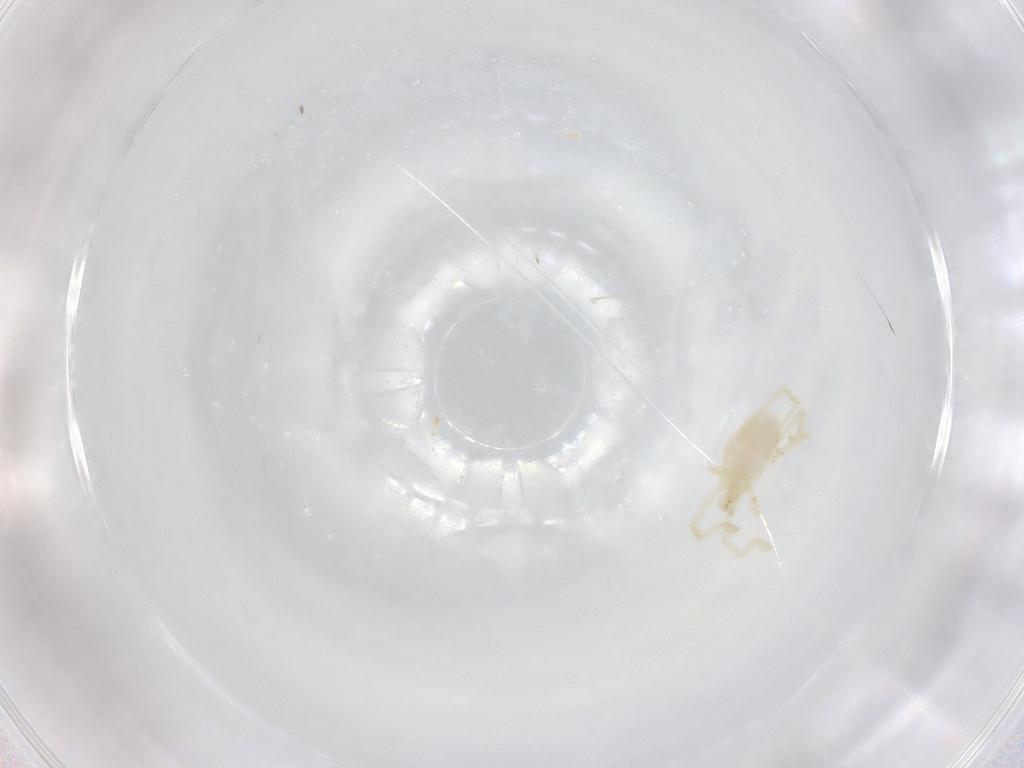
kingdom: Animalia
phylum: Arthropoda
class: Arachnida
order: Trombidiformes
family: Erythraeidae
